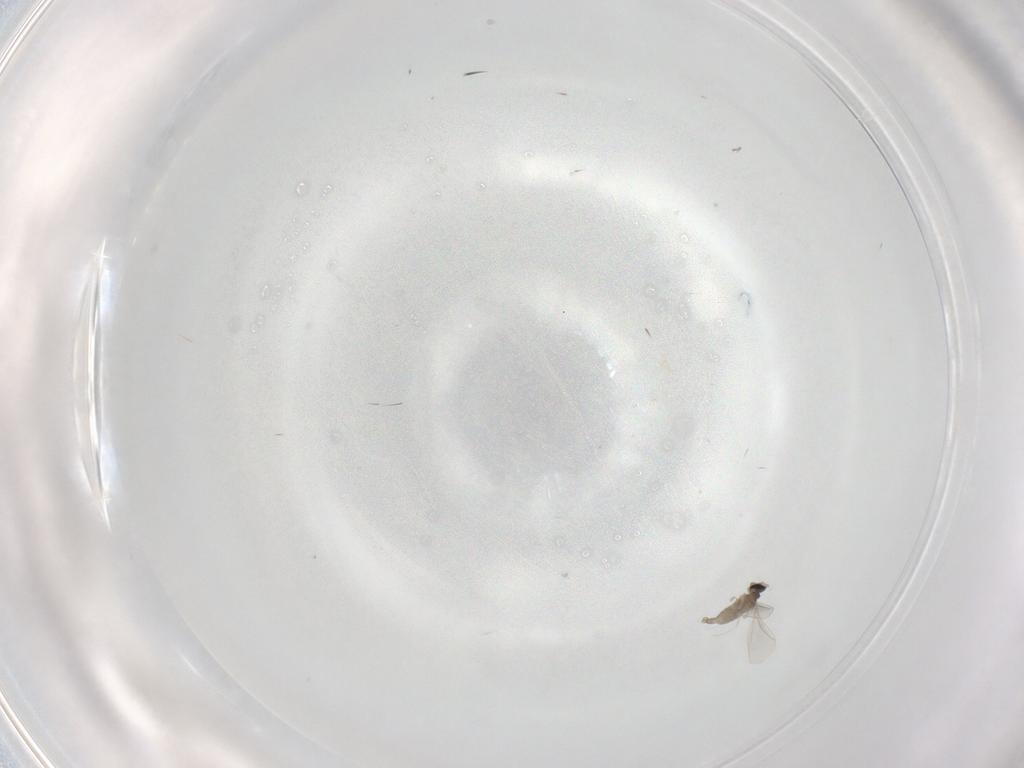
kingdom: Animalia
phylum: Arthropoda
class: Insecta
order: Diptera
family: Cecidomyiidae
